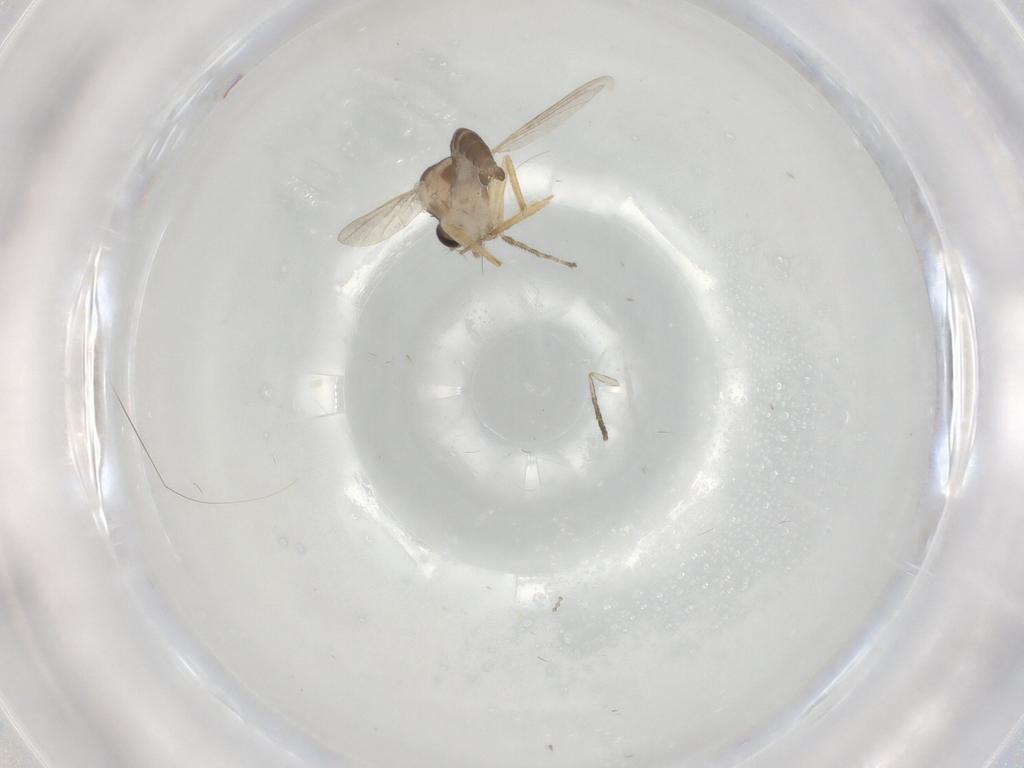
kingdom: Animalia
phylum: Arthropoda
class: Insecta
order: Diptera
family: Ceratopogonidae
